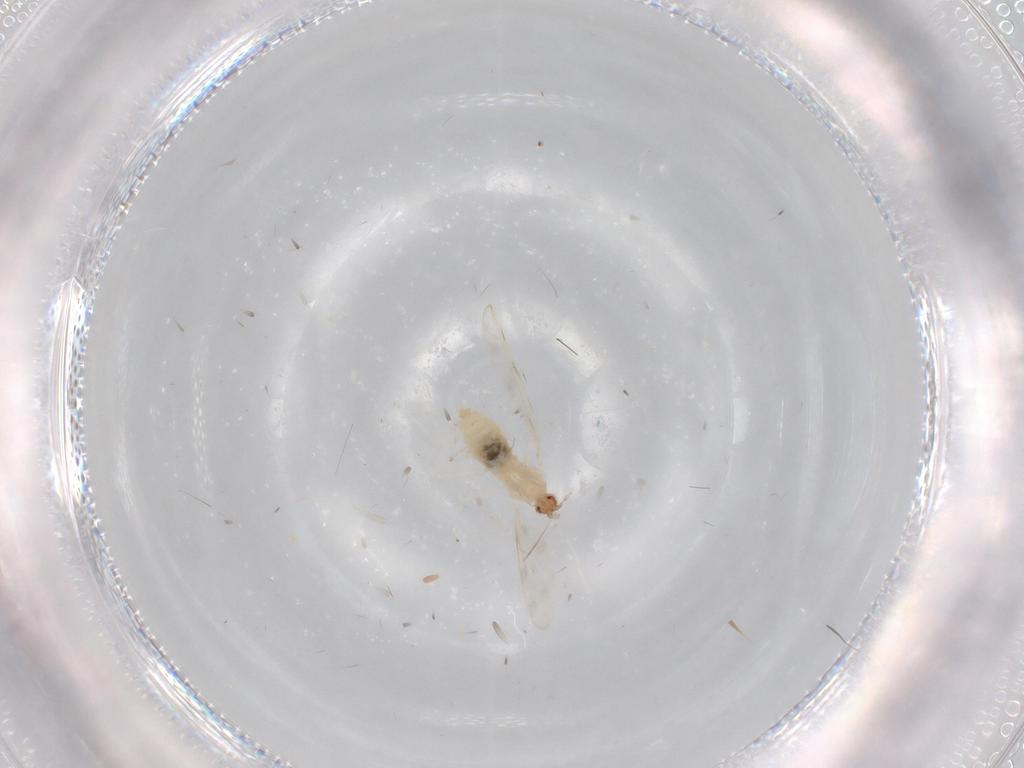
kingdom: Animalia
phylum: Arthropoda
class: Insecta
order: Diptera
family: Cecidomyiidae
